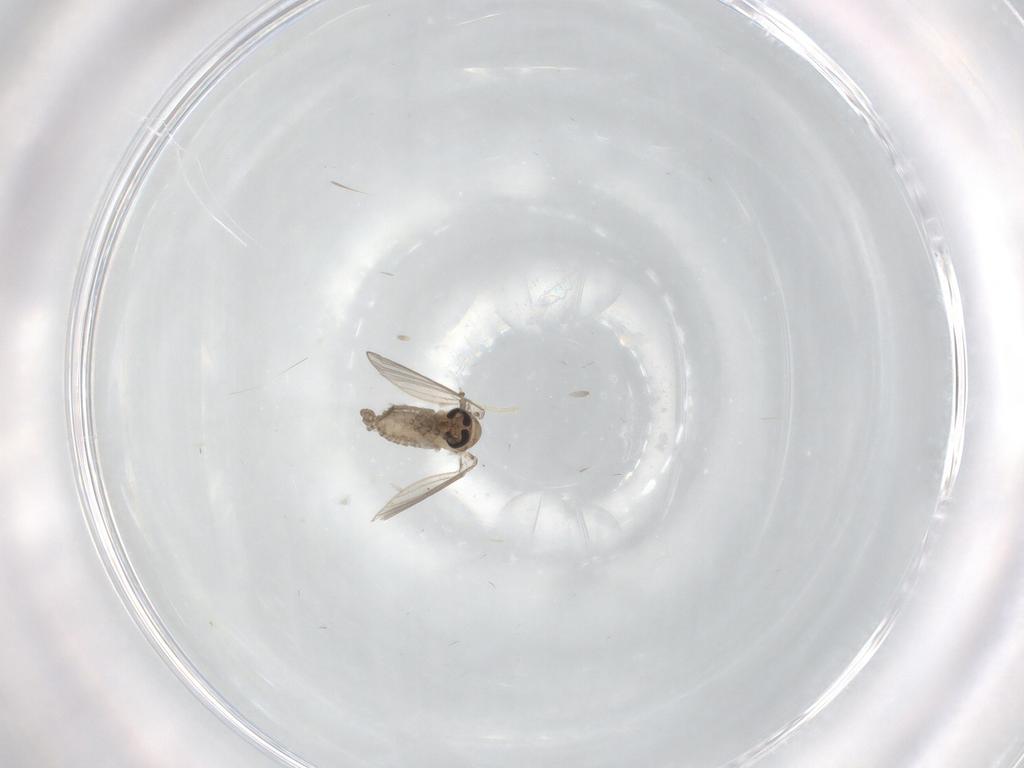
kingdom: Animalia
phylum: Arthropoda
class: Insecta
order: Diptera
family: Psychodidae
